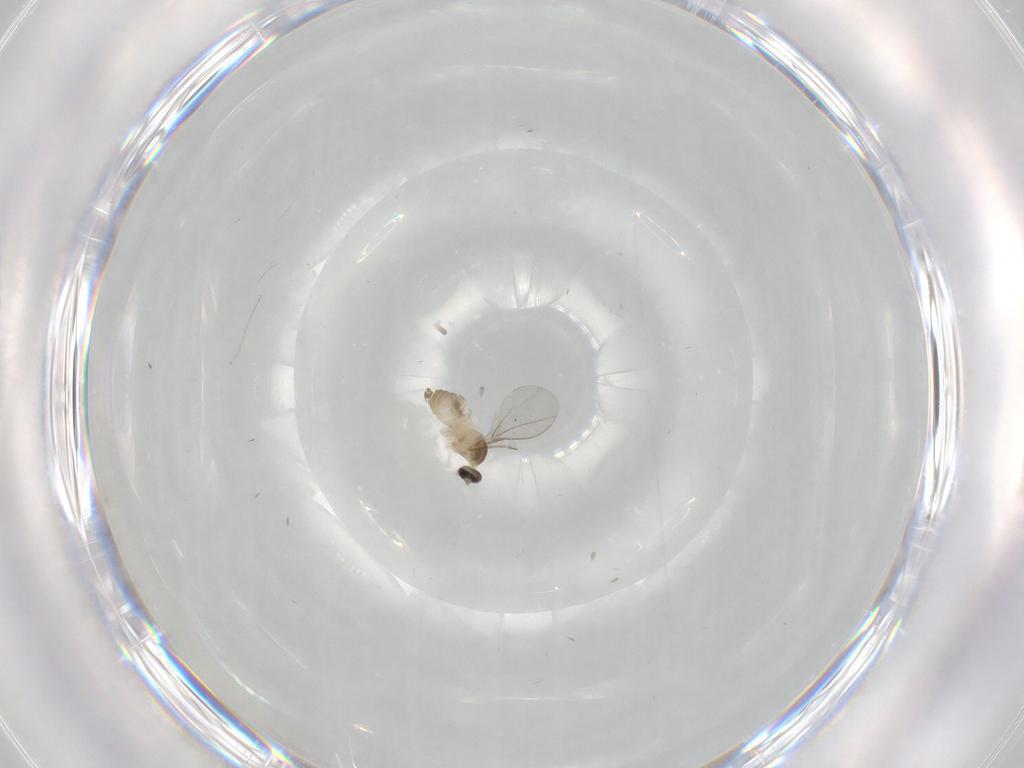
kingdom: Animalia
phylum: Arthropoda
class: Insecta
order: Diptera
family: Cecidomyiidae
